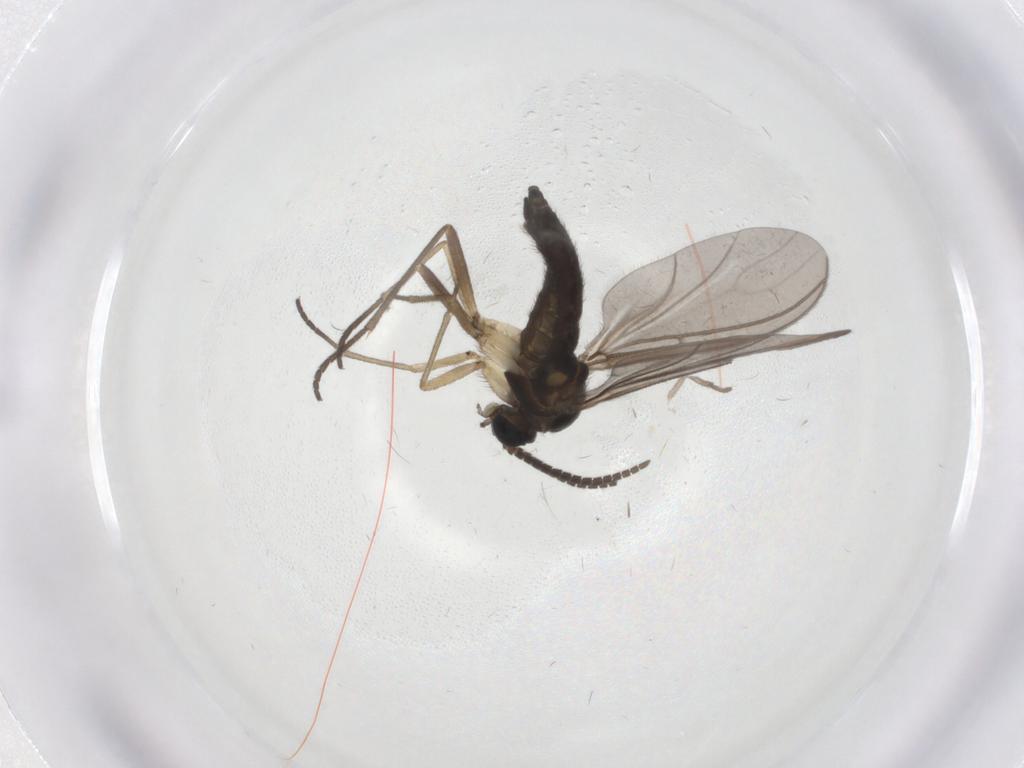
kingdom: Animalia
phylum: Arthropoda
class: Insecta
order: Diptera
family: Sciaridae
